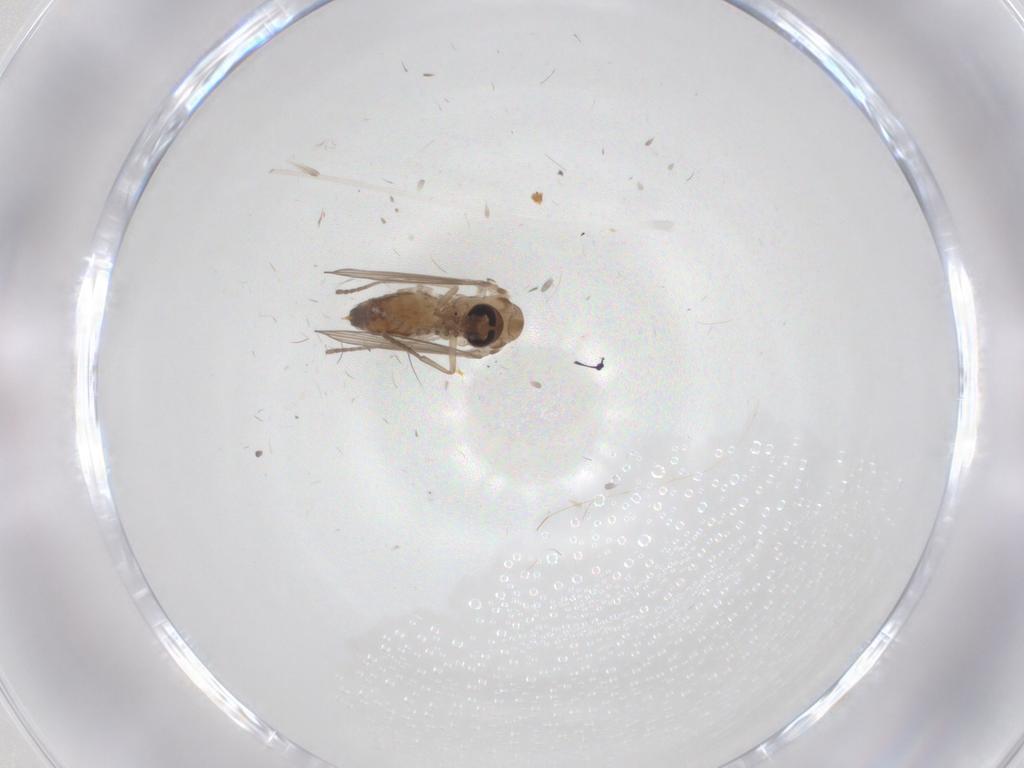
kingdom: Animalia
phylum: Arthropoda
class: Insecta
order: Diptera
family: Psychodidae
